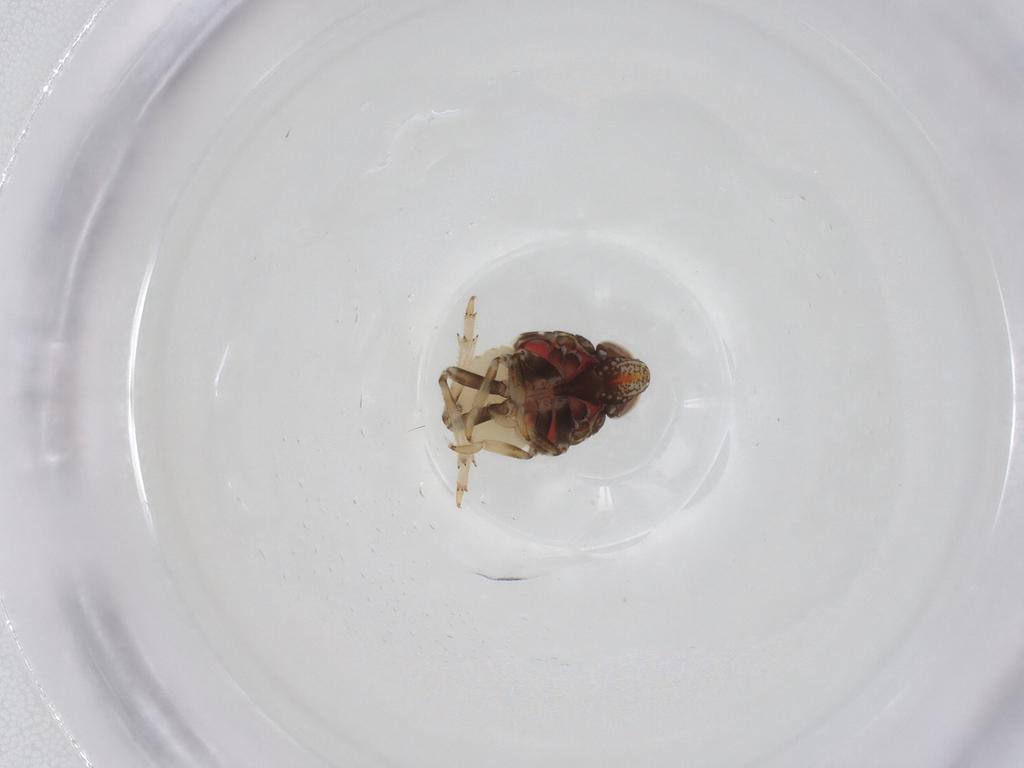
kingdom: Animalia
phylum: Arthropoda
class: Insecta
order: Hemiptera
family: Issidae
